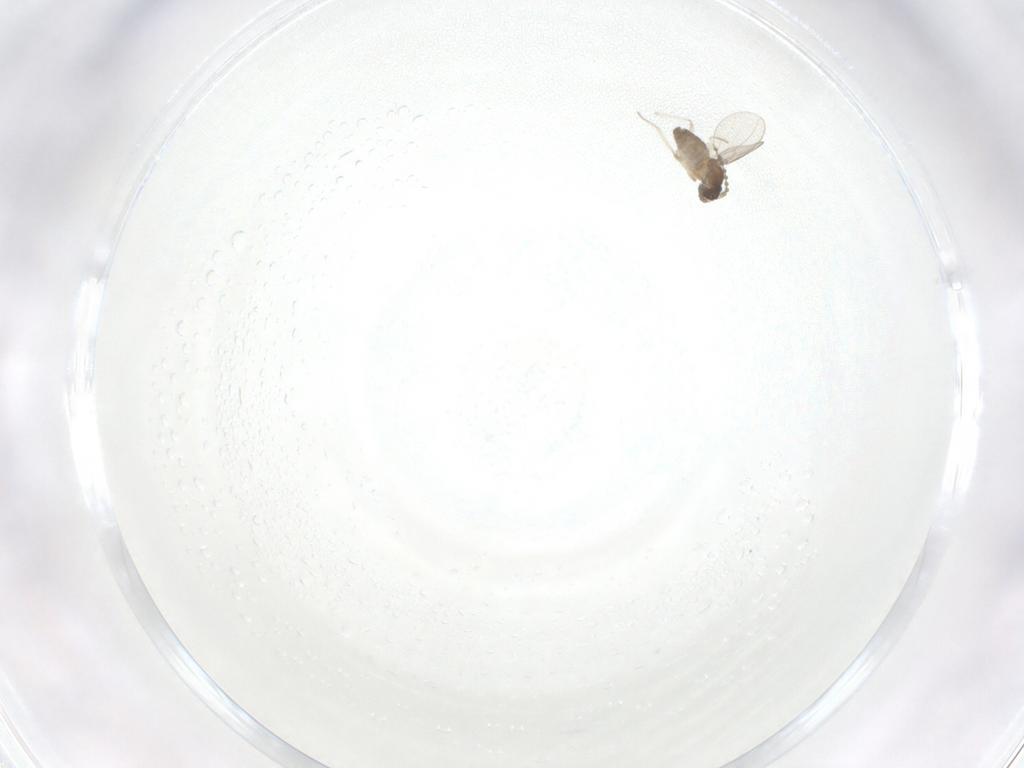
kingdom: Animalia
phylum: Arthropoda
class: Insecta
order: Diptera
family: Cecidomyiidae
